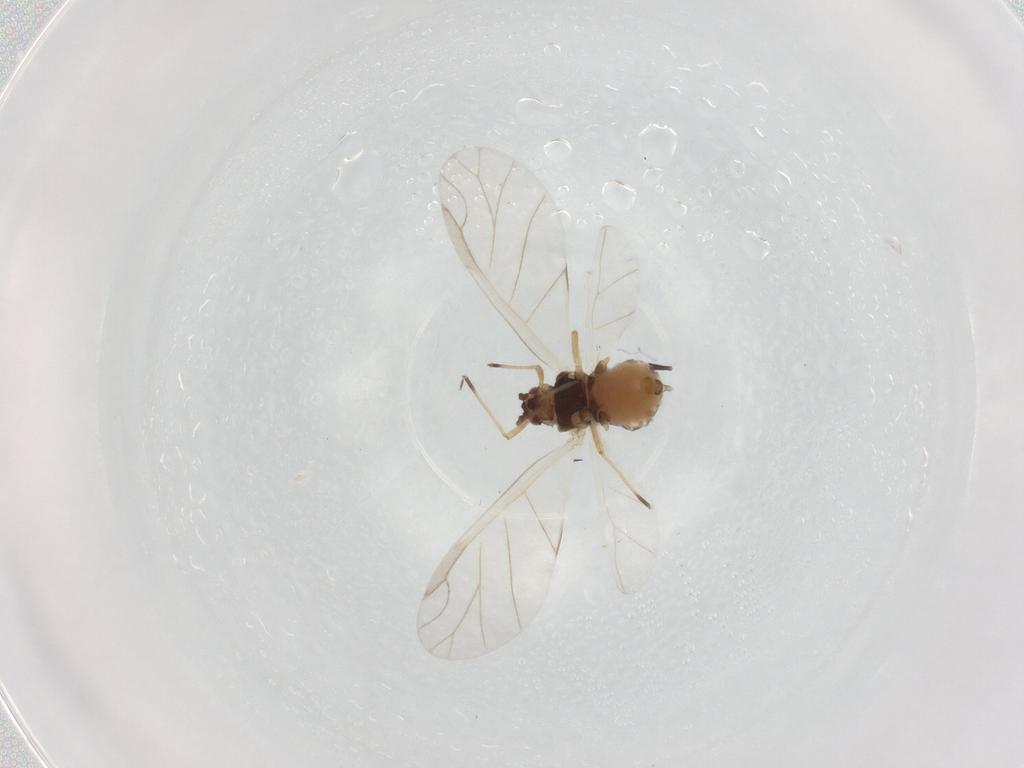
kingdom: Animalia
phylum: Arthropoda
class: Insecta
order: Hemiptera
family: Aphididae
